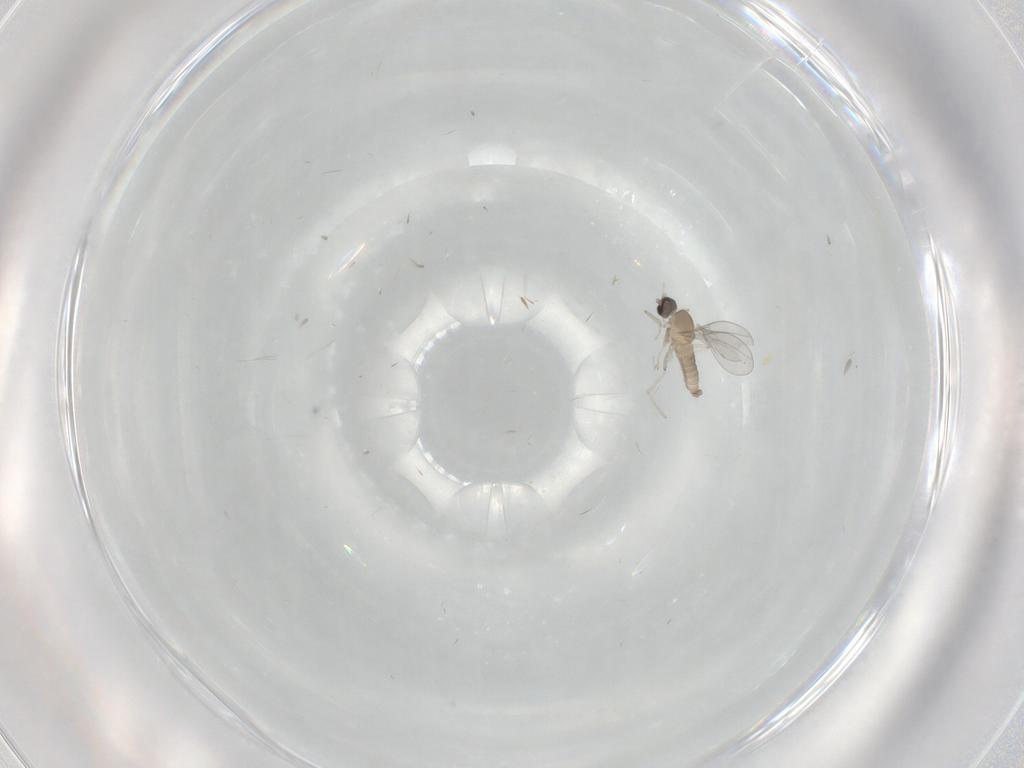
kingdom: Animalia
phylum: Arthropoda
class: Insecta
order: Diptera
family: Cecidomyiidae
